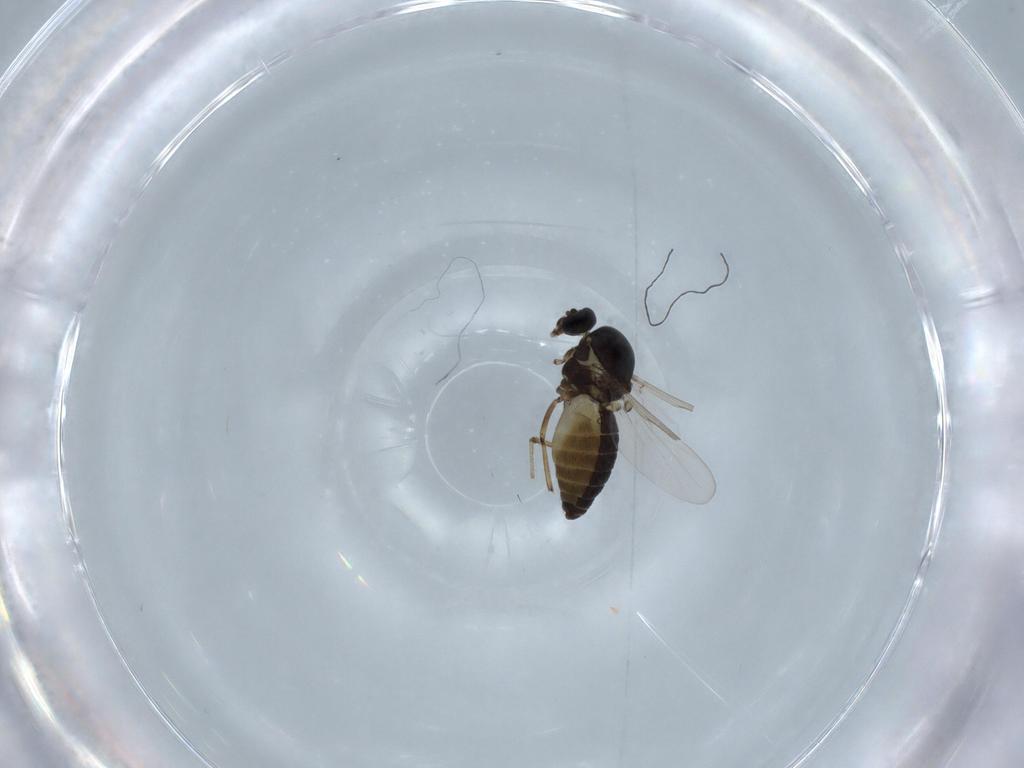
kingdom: Animalia
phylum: Arthropoda
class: Insecta
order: Diptera
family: Ceratopogonidae
